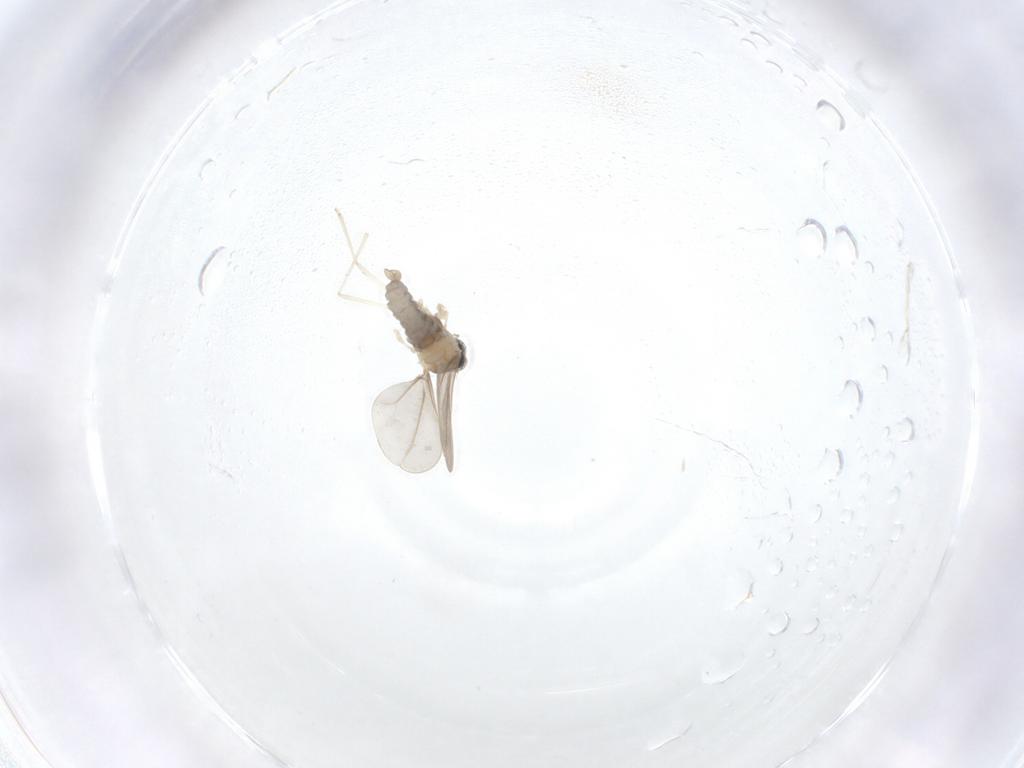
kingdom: Animalia
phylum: Arthropoda
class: Insecta
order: Diptera
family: Cecidomyiidae
